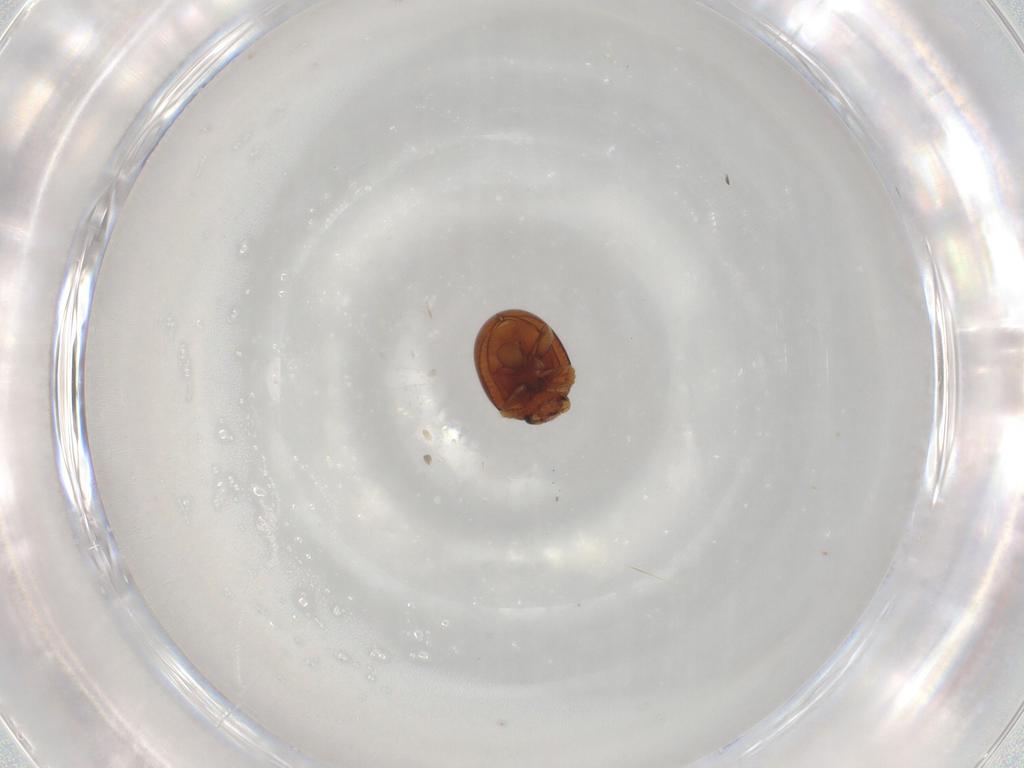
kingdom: Animalia
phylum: Arthropoda
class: Insecta
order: Coleoptera
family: Chrysomelidae
